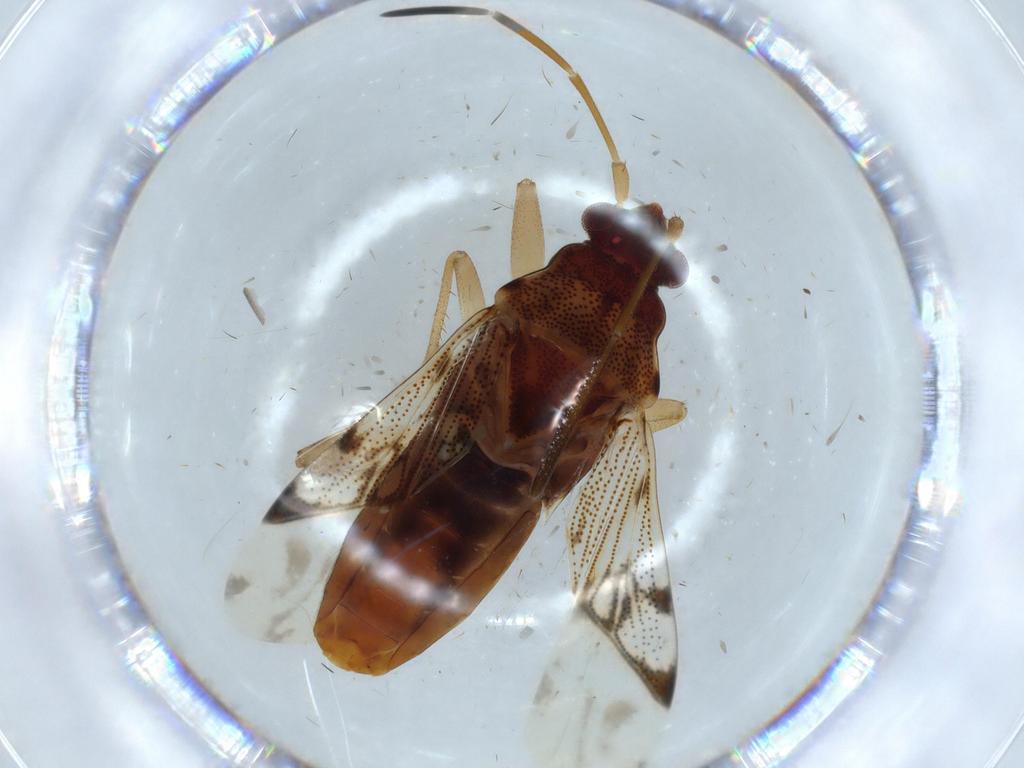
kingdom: Animalia
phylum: Arthropoda
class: Insecta
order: Hemiptera
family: Rhyparochromidae
